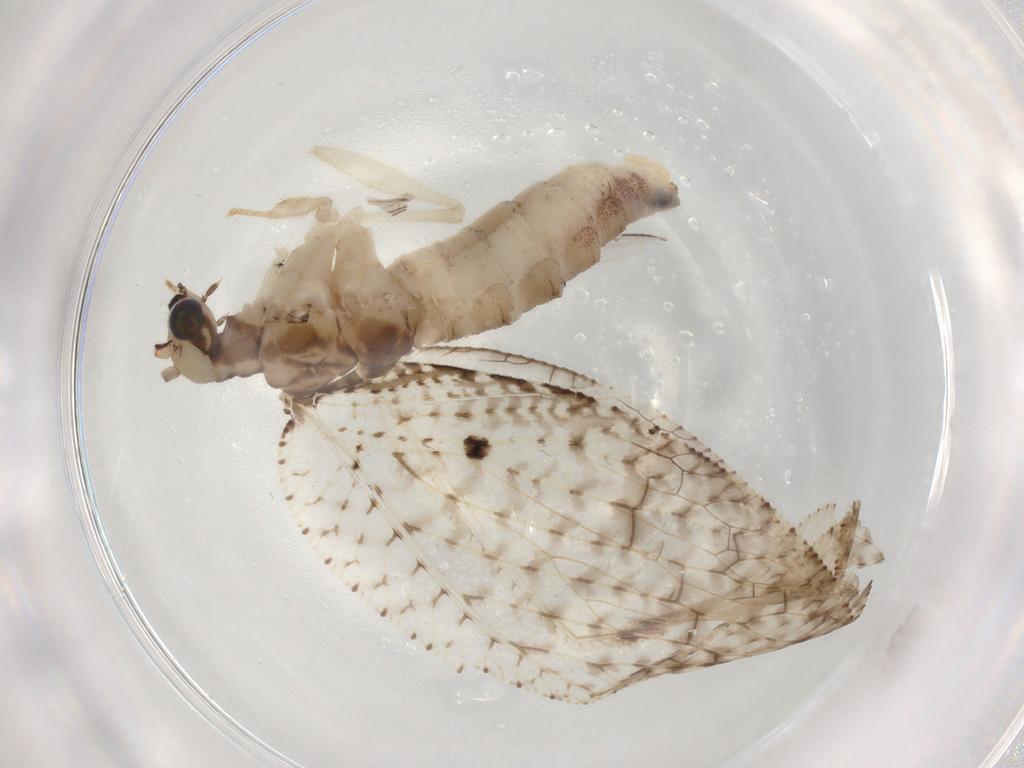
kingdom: Animalia
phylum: Arthropoda
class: Insecta
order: Neuroptera
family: Hemerobiidae
